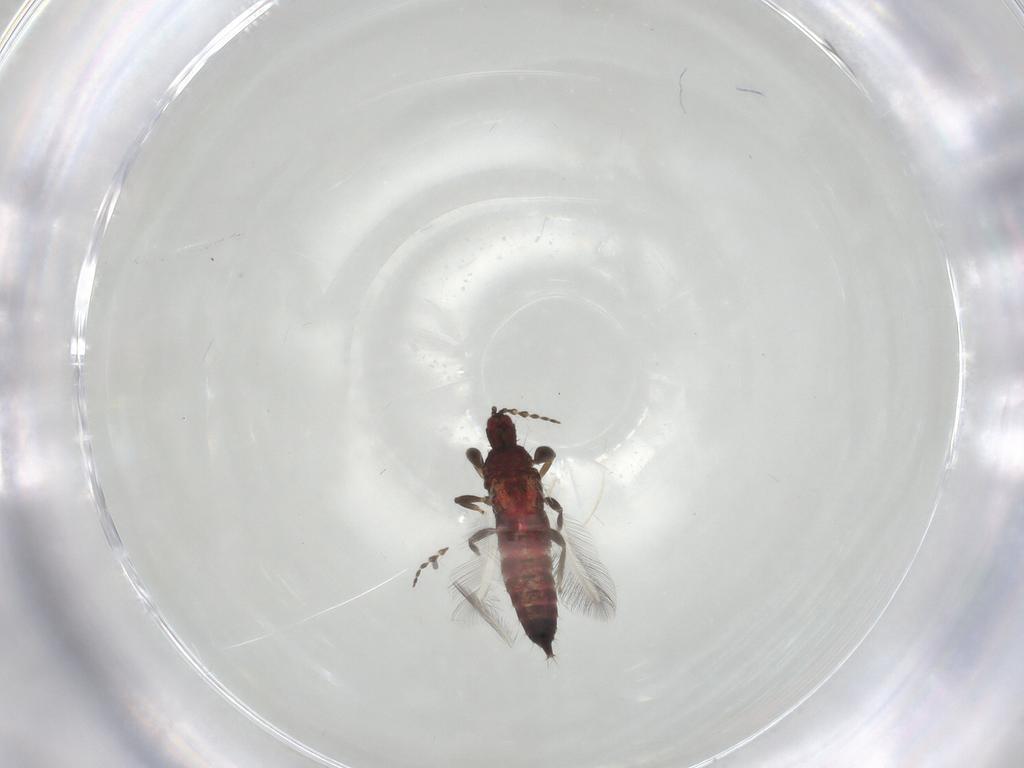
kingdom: Animalia
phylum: Arthropoda
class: Insecta
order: Thysanoptera
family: Phlaeothripidae
